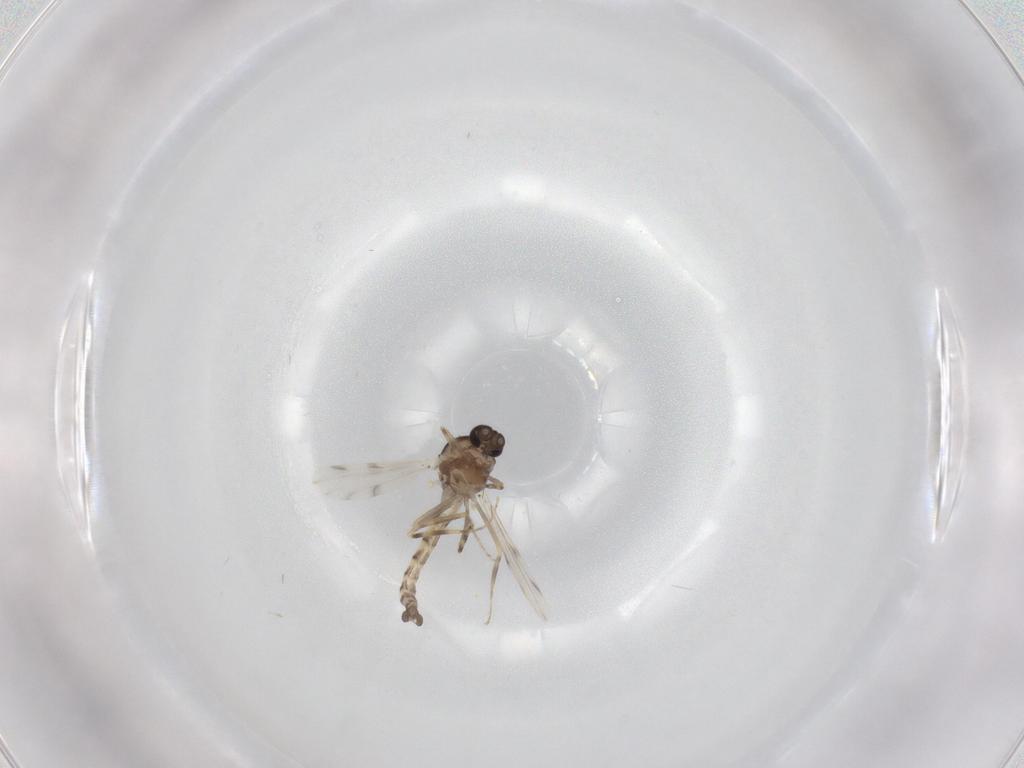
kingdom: Animalia
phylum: Arthropoda
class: Insecta
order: Diptera
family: Ceratopogonidae
